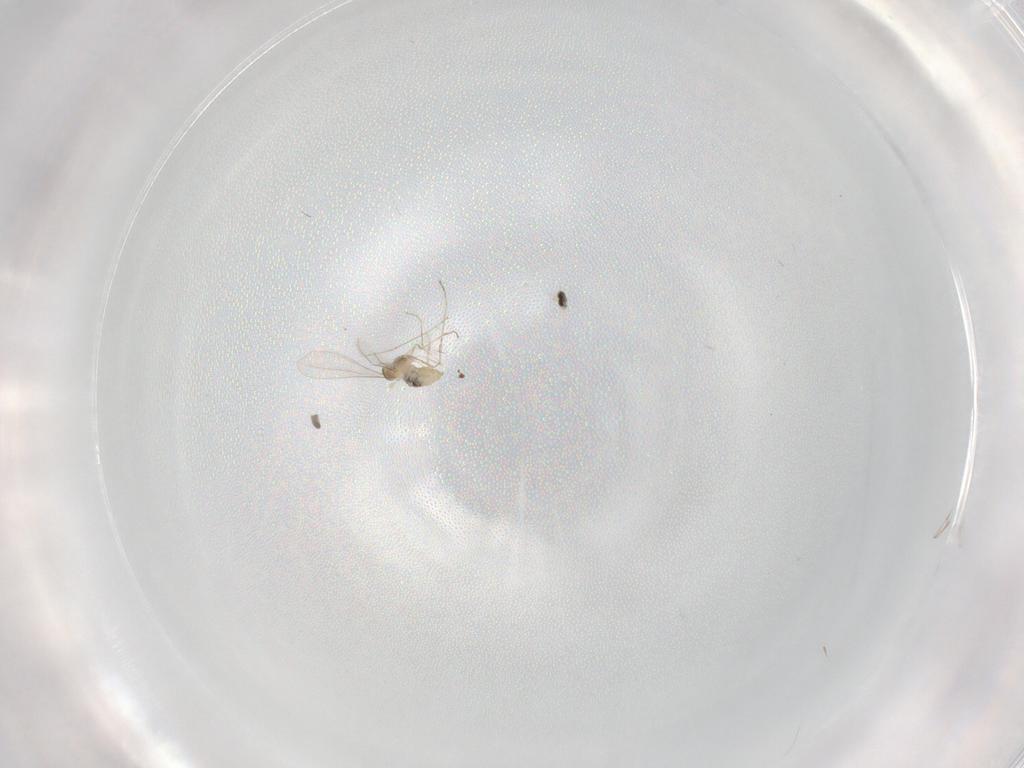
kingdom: Animalia
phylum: Arthropoda
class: Insecta
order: Diptera
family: Cecidomyiidae
